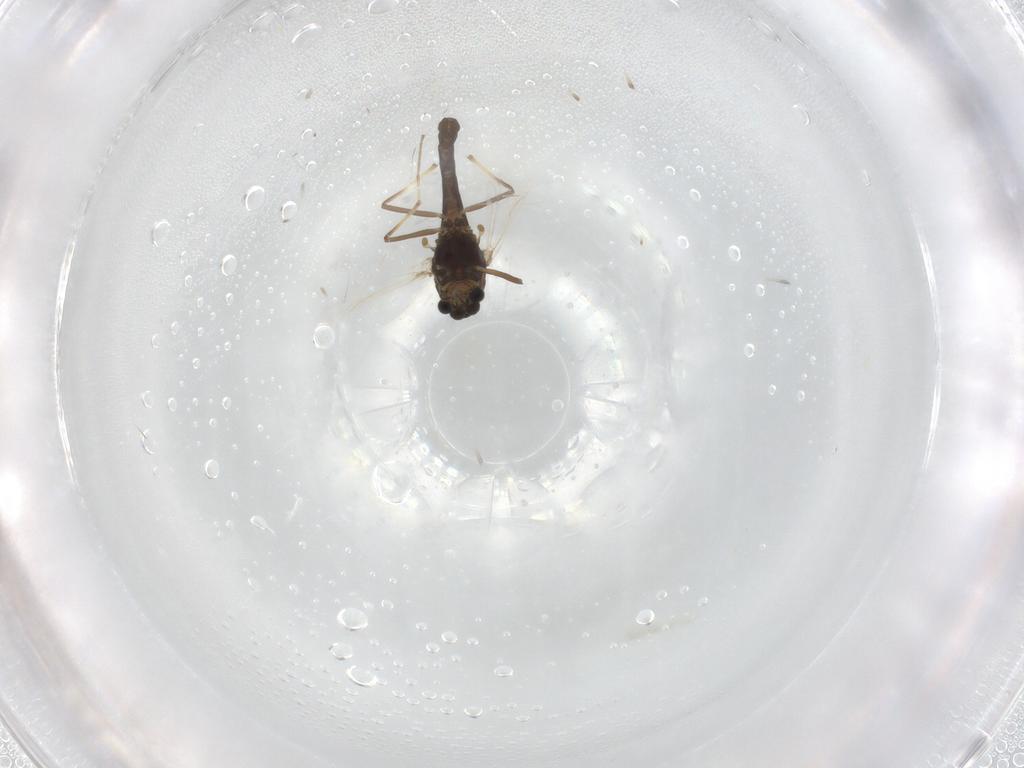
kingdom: Animalia
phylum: Arthropoda
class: Insecta
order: Diptera
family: Chironomidae
